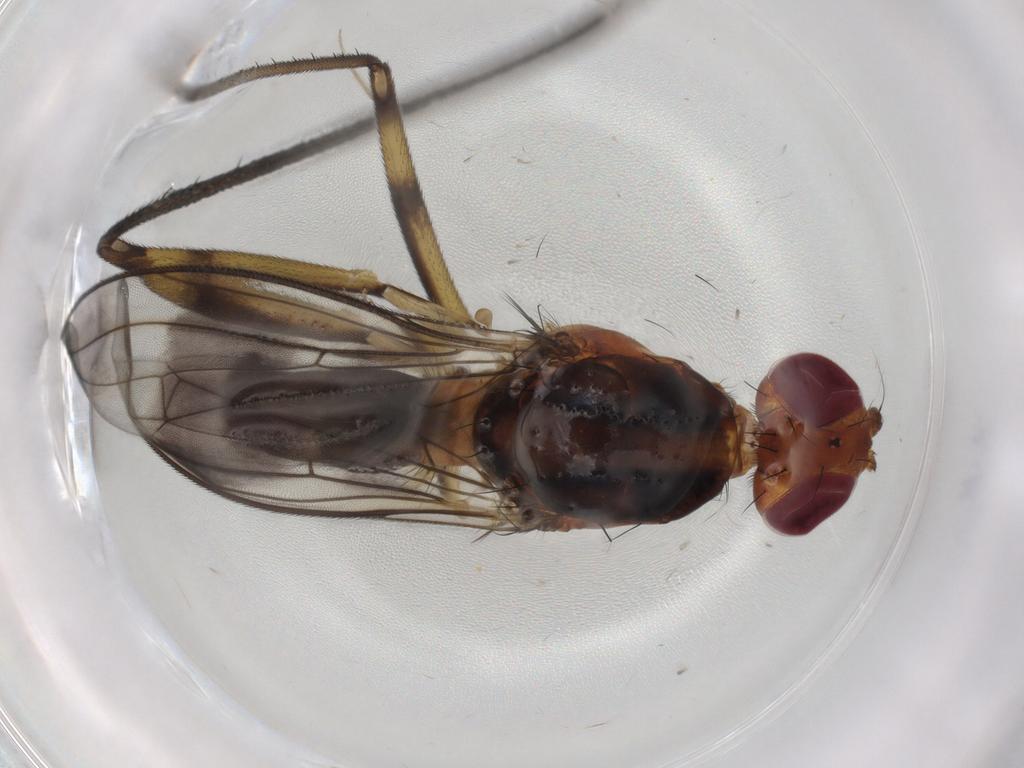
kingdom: Animalia
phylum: Arthropoda
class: Insecta
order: Diptera
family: Micropezidae
